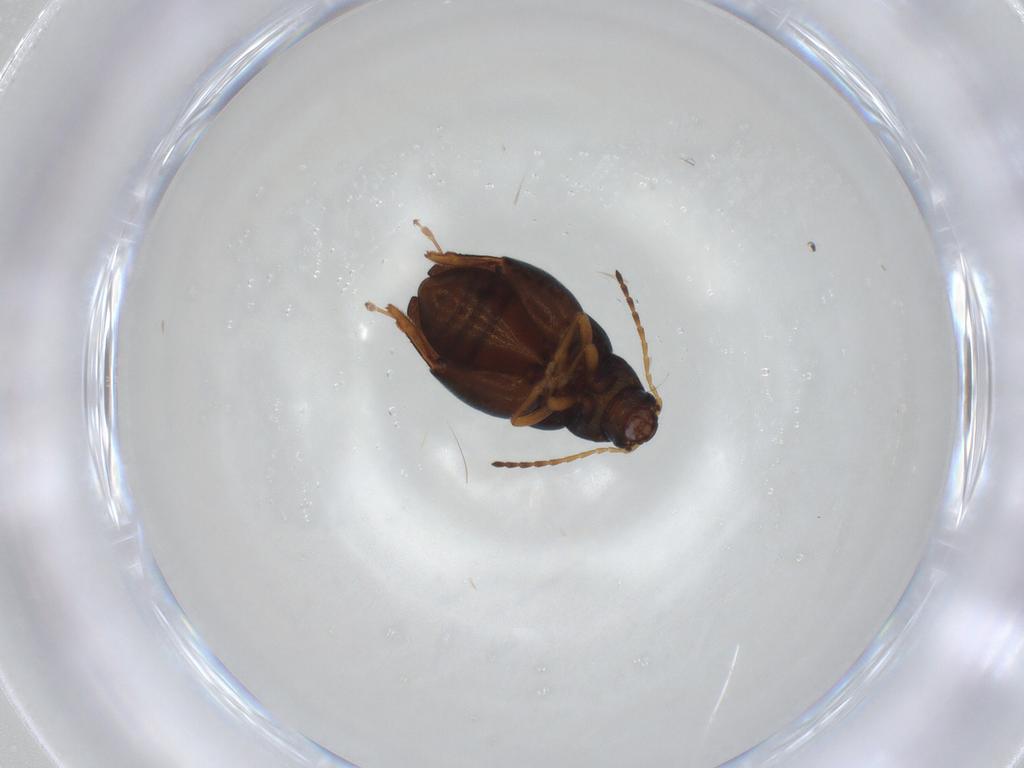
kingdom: Animalia
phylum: Arthropoda
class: Insecta
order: Coleoptera
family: Chrysomelidae
